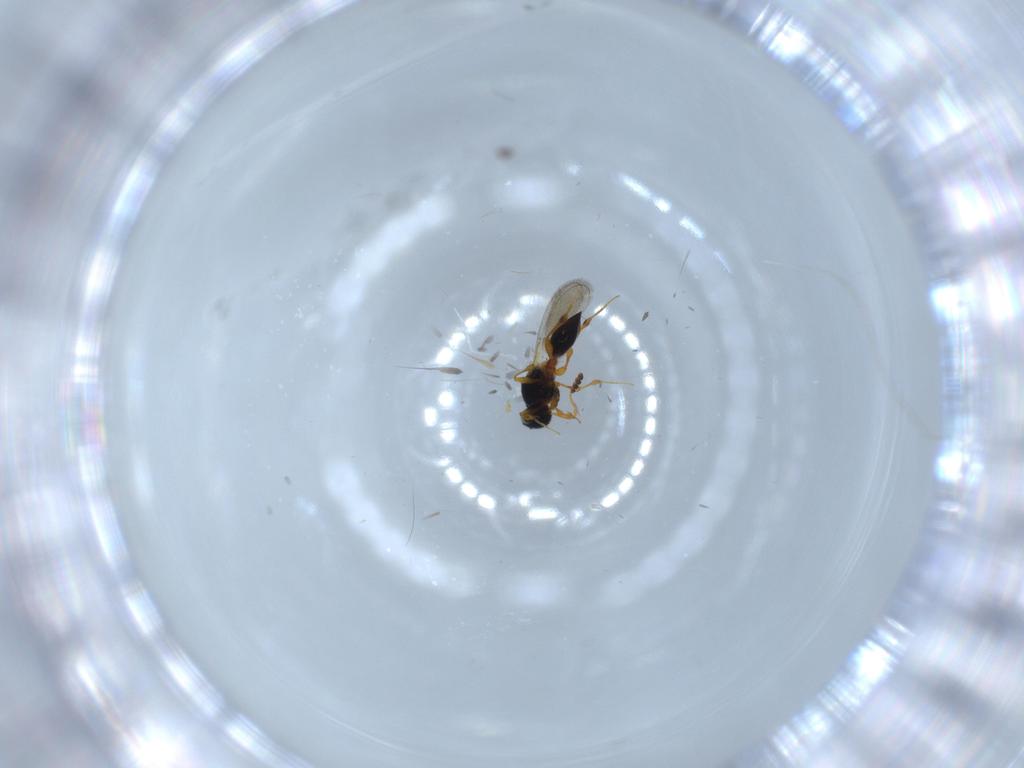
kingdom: Animalia
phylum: Arthropoda
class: Insecta
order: Hymenoptera
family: Platygastridae
